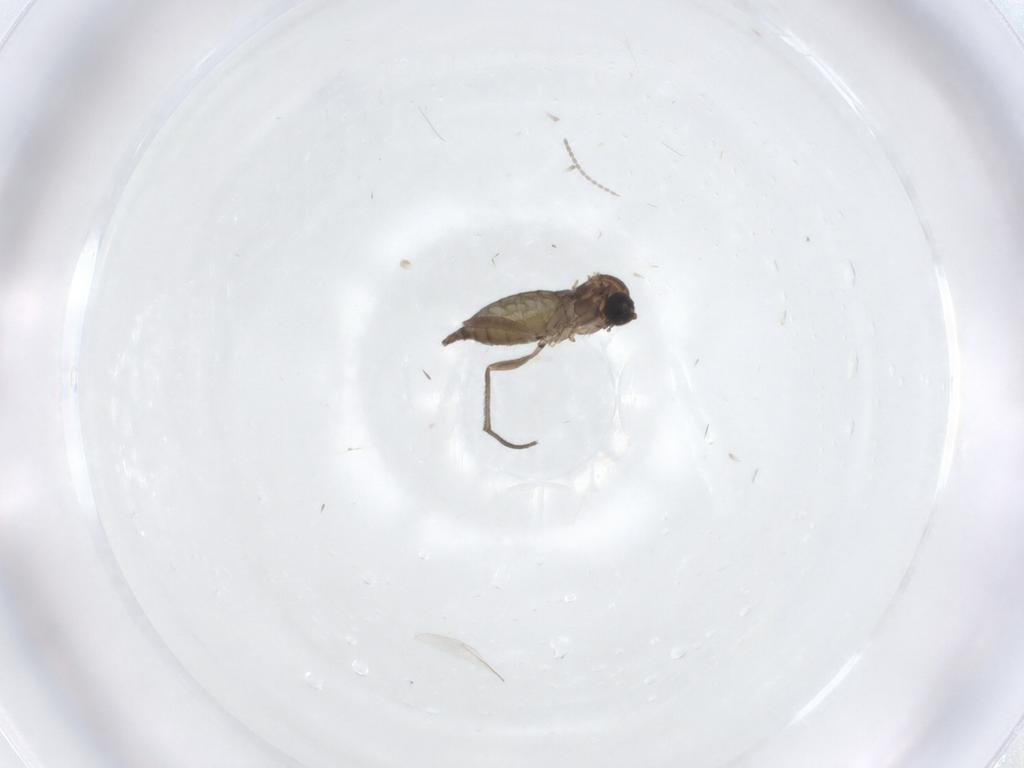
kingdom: Animalia
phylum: Arthropoda
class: Insecta
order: Diptera
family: Sciaridae
